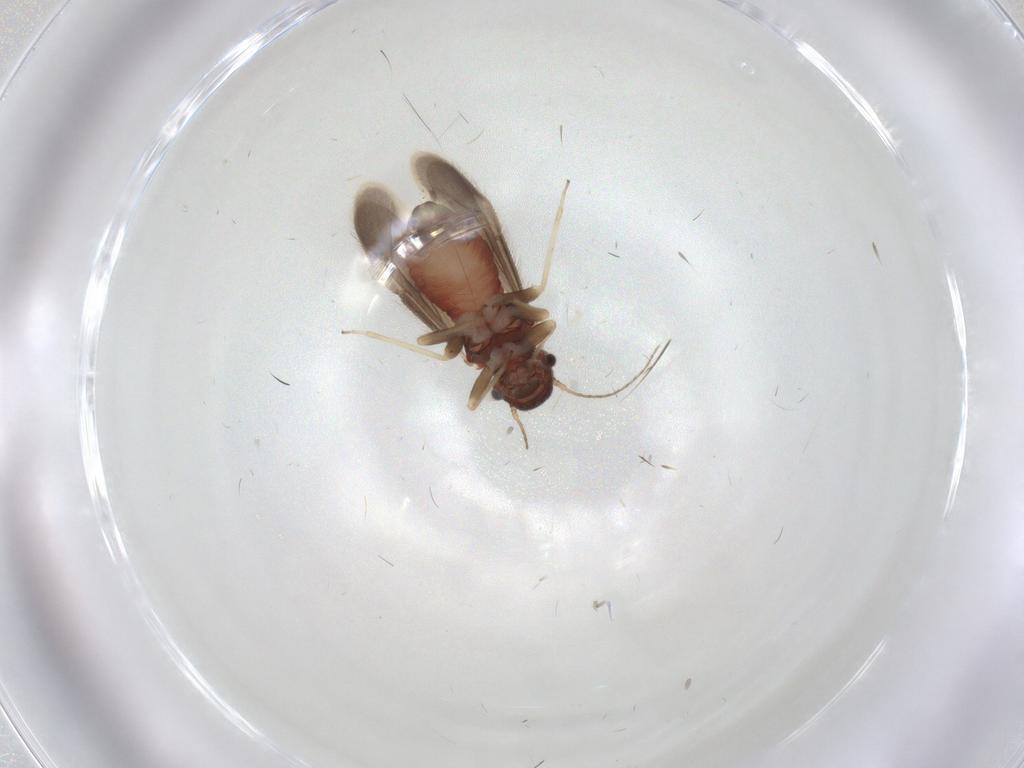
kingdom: Animalia
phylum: Arthropoda
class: Insecta
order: Psocodea
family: Archipsocidae
